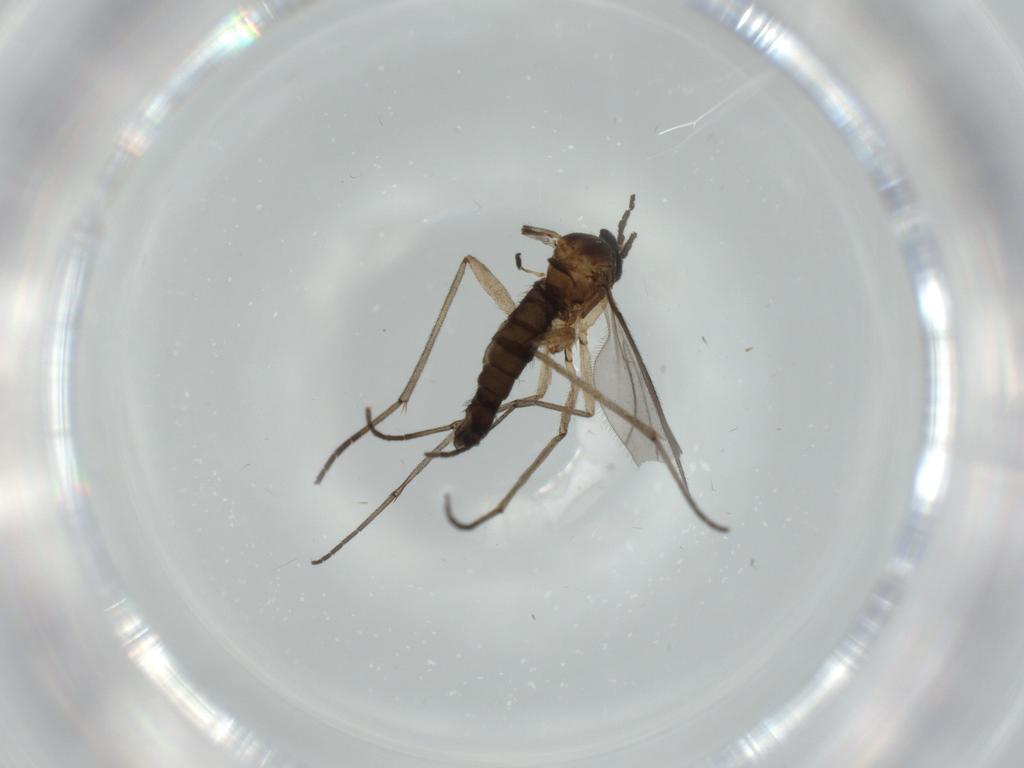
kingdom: Animalia
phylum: Arthropoda
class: Insecta
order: Diptera
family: Sciaridae
